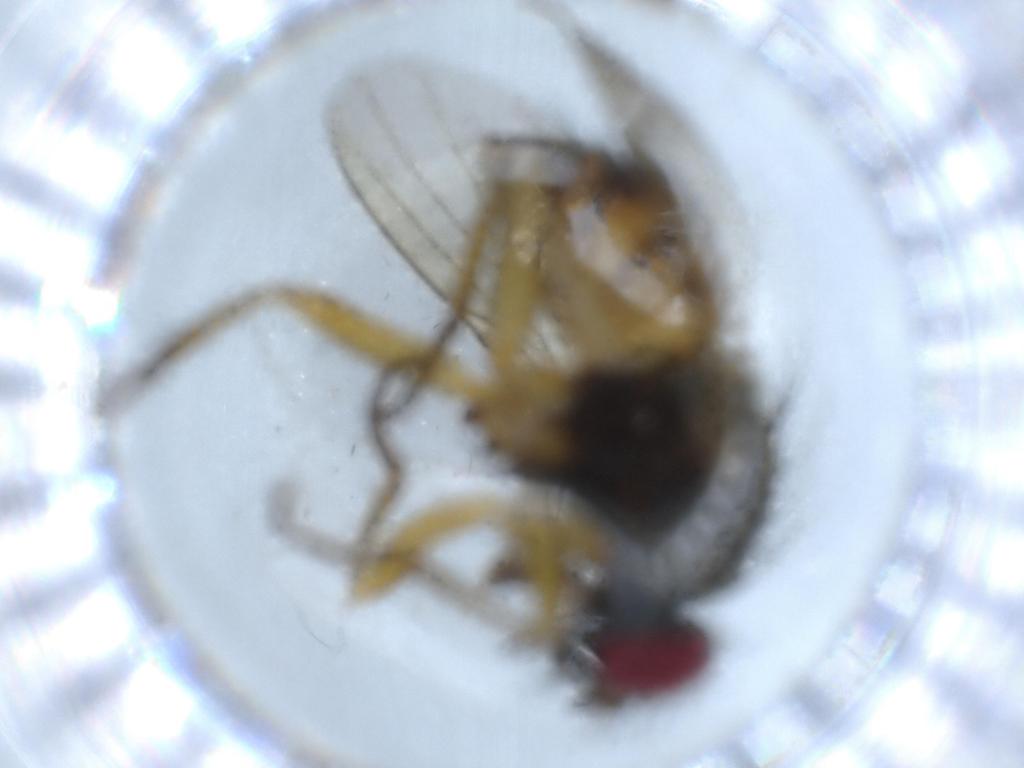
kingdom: Animalia
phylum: Arthropoda
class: Insecta
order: Diptera
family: Muscidae
